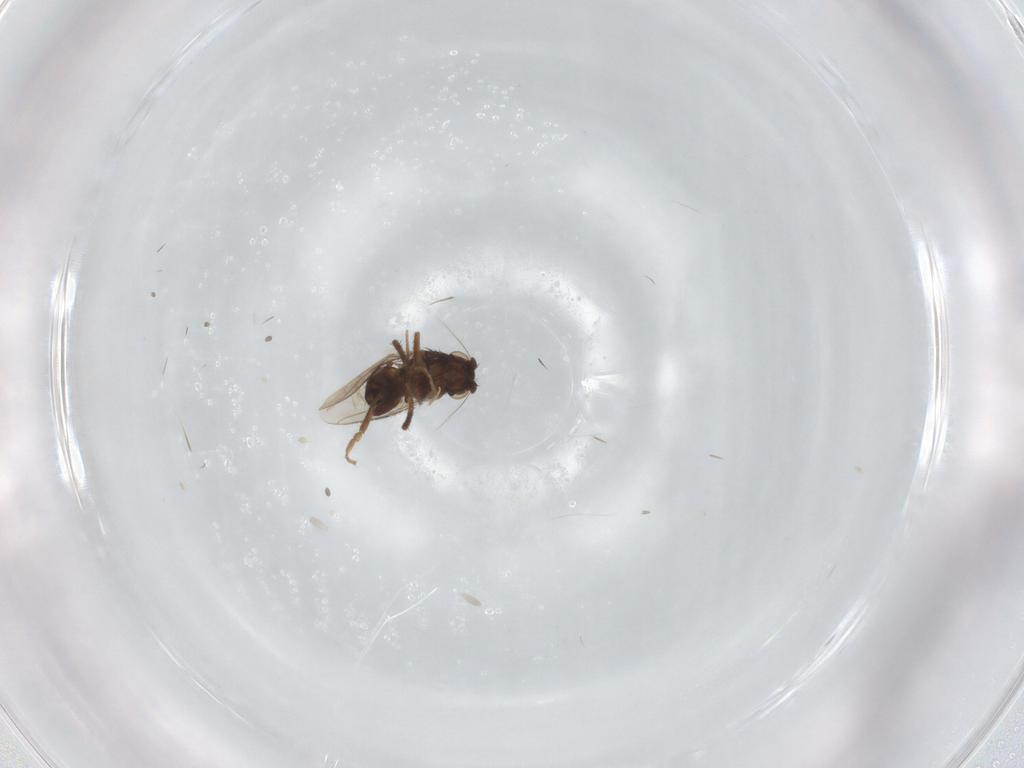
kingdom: Animalia
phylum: Arthropoda
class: Insecta
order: Diptera
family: Sphaeroceridae
